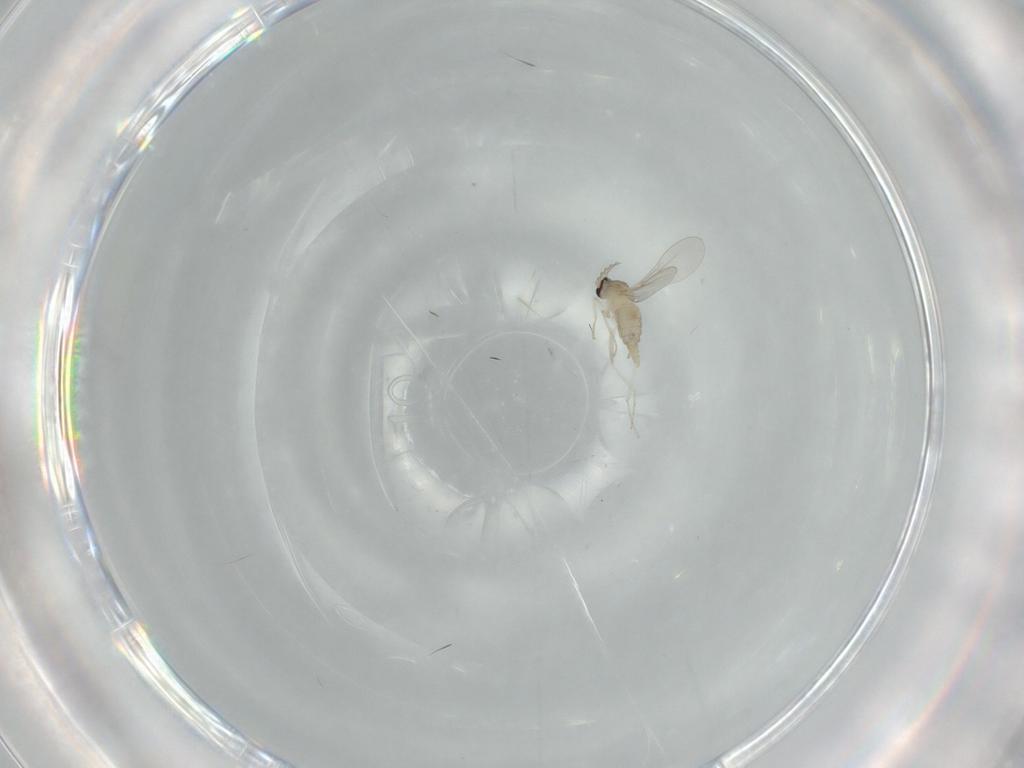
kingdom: Animalia
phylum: Arthropoda
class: Insecta
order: Diptera
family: Cecidomyiidae
